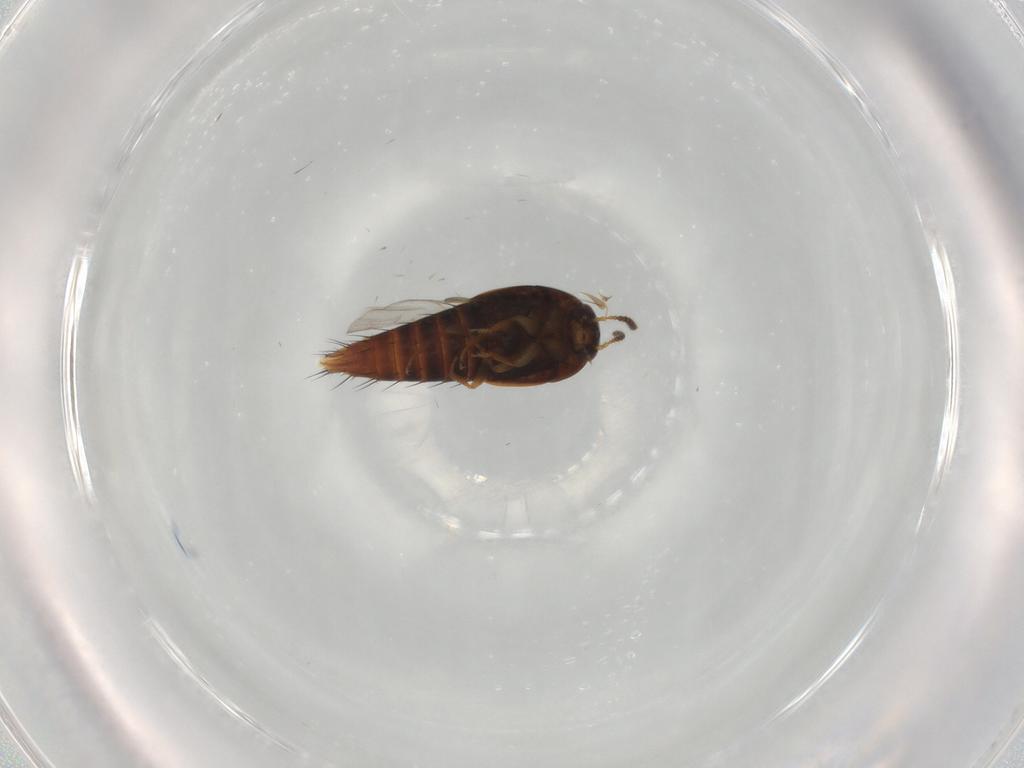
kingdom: Animalia
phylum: Arthropoda
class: Insecta
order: Coleoptera
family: Staphylinidae
